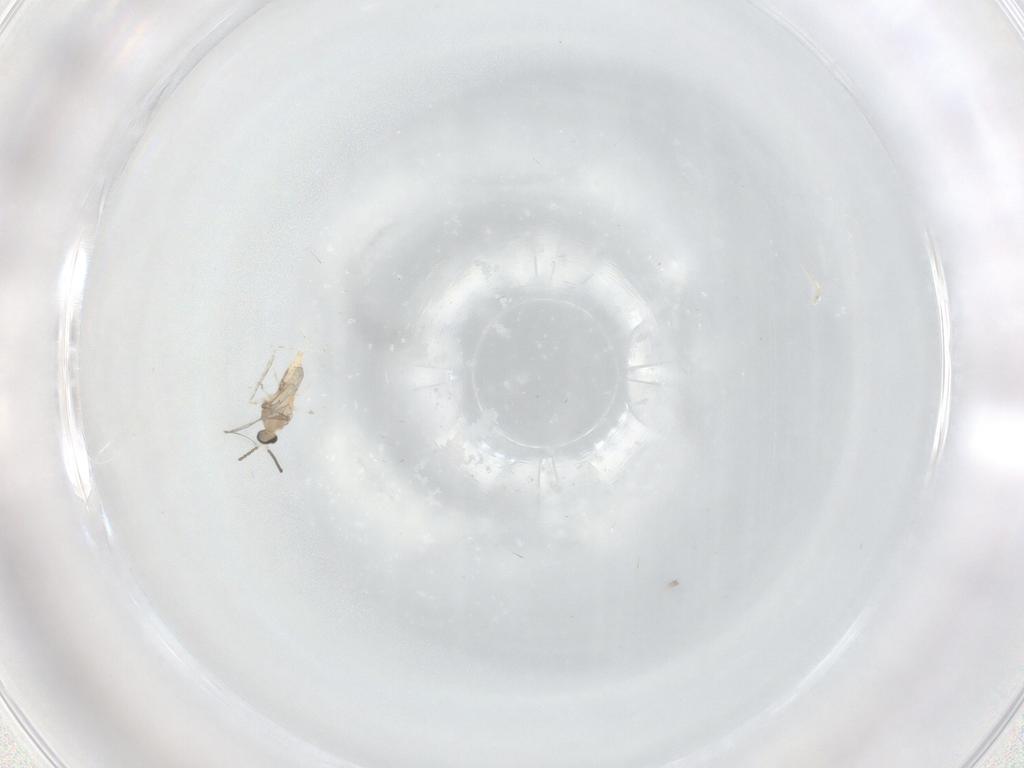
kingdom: Animalia
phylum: Arthropoda
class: Insecta
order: Diptera
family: Cecidomyiidae
